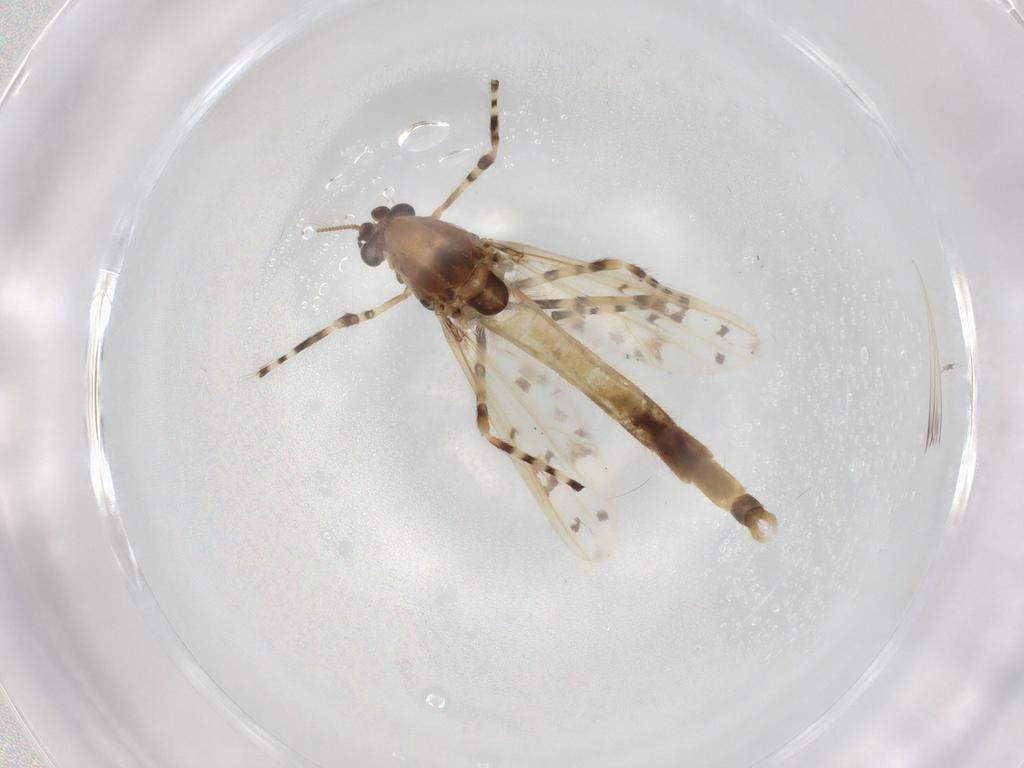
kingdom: Animalia
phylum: Arthropoda
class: Insecta
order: Diptera
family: Chironomidae
